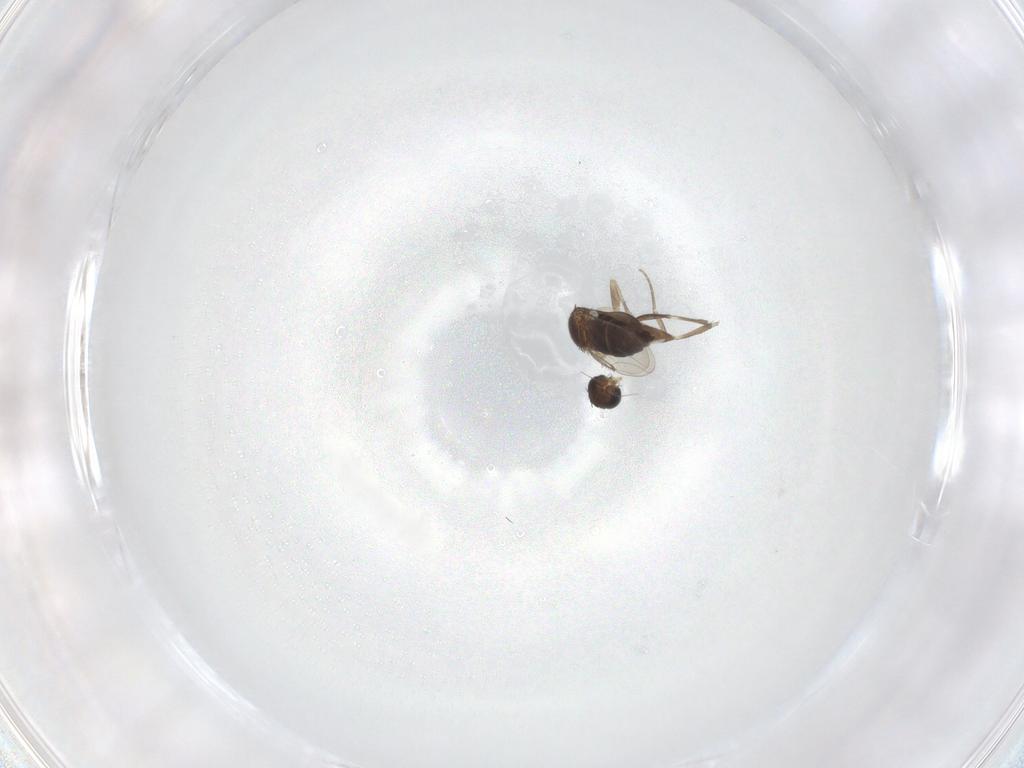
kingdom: Animalia
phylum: Arthropoda
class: Insecta
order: Diptera
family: Phoridae
